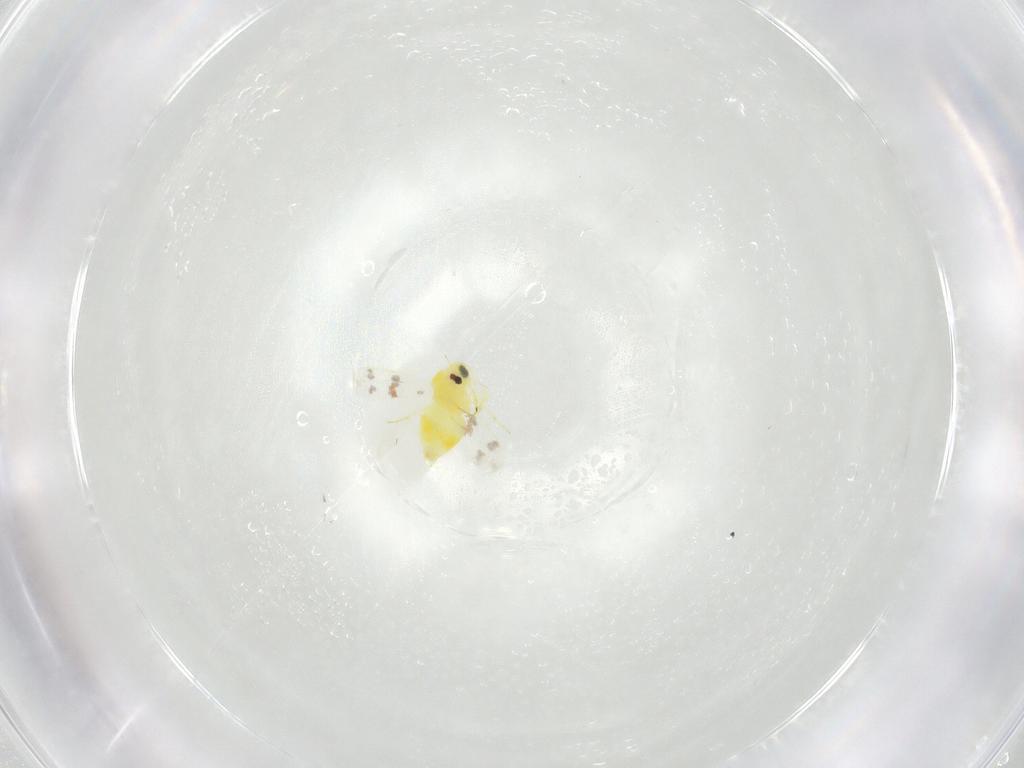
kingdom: Animalia
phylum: Arthropoda
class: Insecta
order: Hemiptera
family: Aleyrodidae
